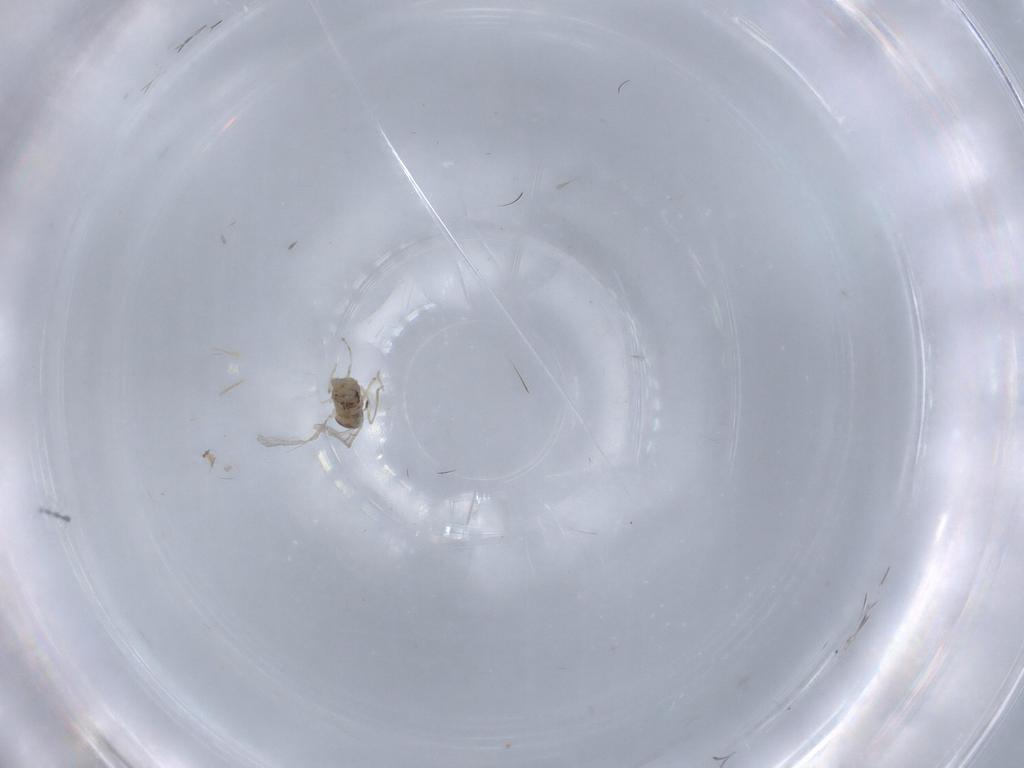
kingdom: Animalia
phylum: Arthropoda
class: Insecta
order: Diptera
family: Cecidomyiidae
